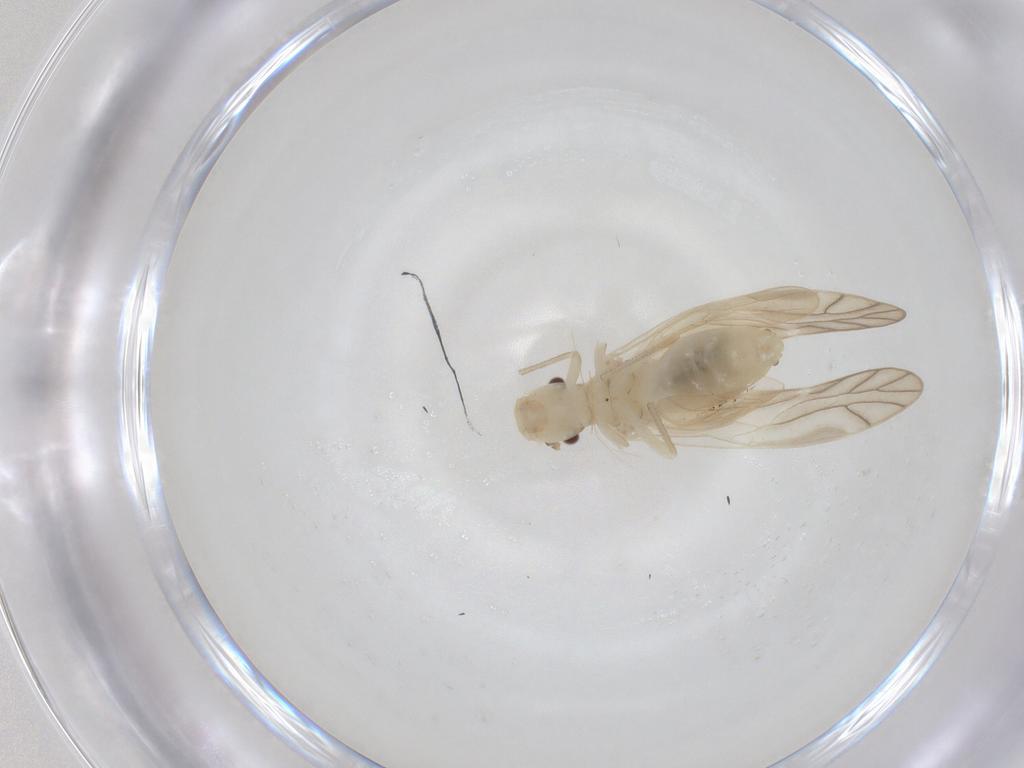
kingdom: Animalia
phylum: Arthropoda
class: Insecta
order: Psocodea
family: Caeciliusidae
